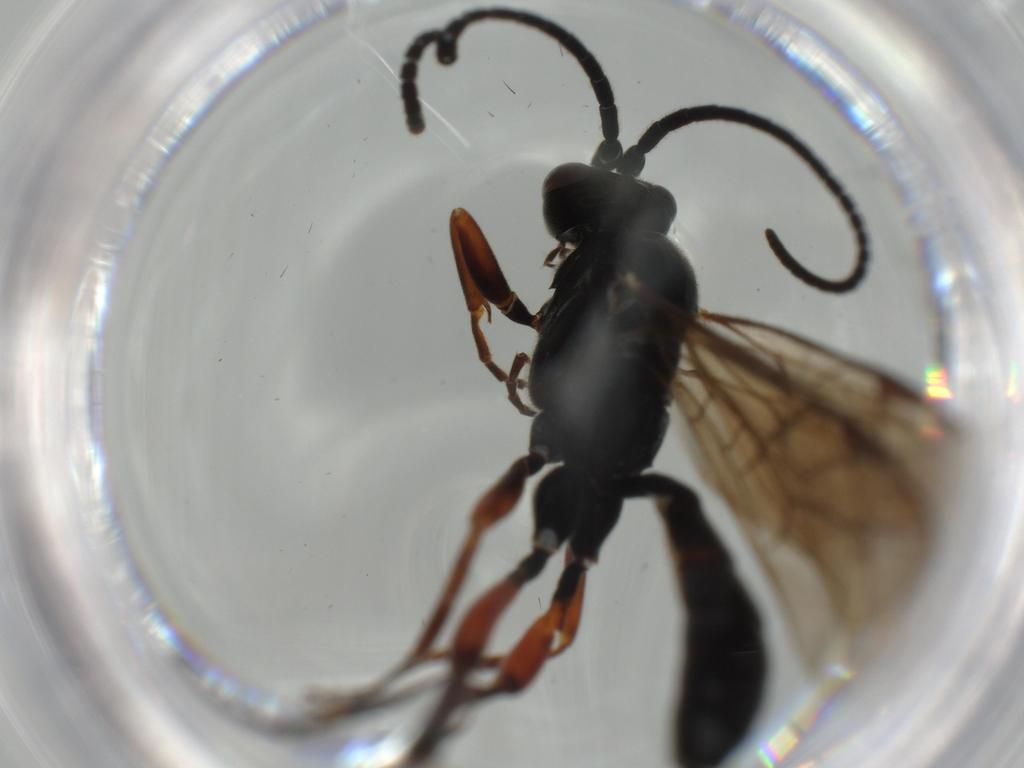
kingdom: Animalia
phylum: Arthropoda
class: Insecta
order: Hymenoptera
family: Ichneumonidae
